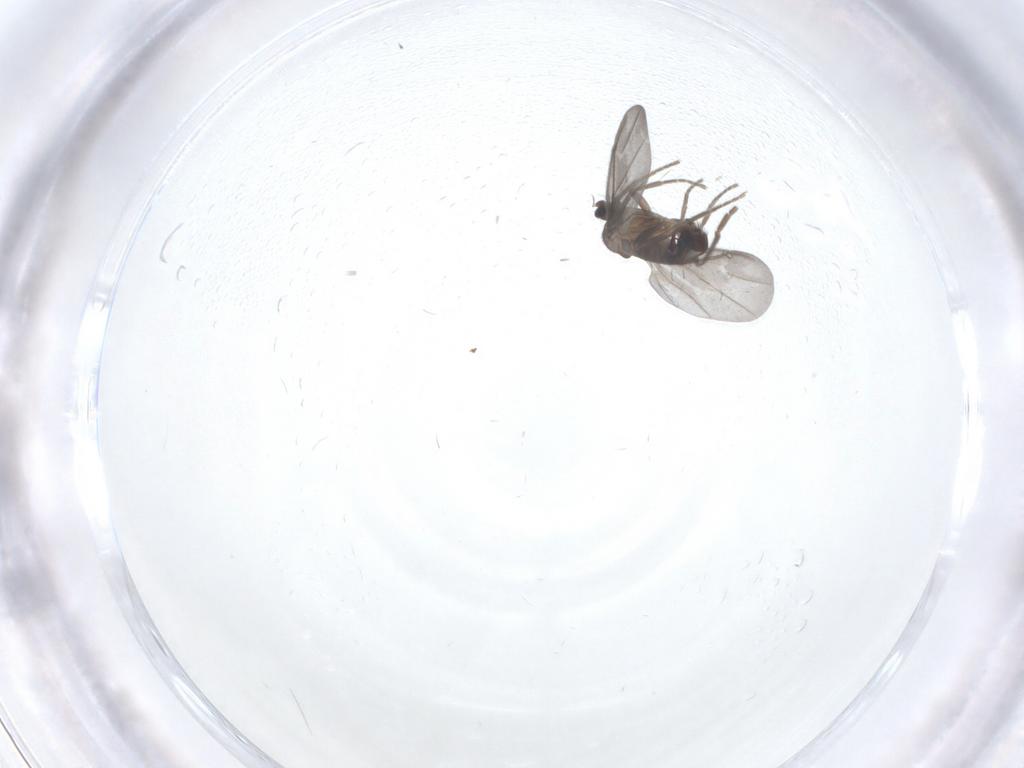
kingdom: Animalia
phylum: Arthropoda
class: Insecta
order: Diptera
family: Phoridae
